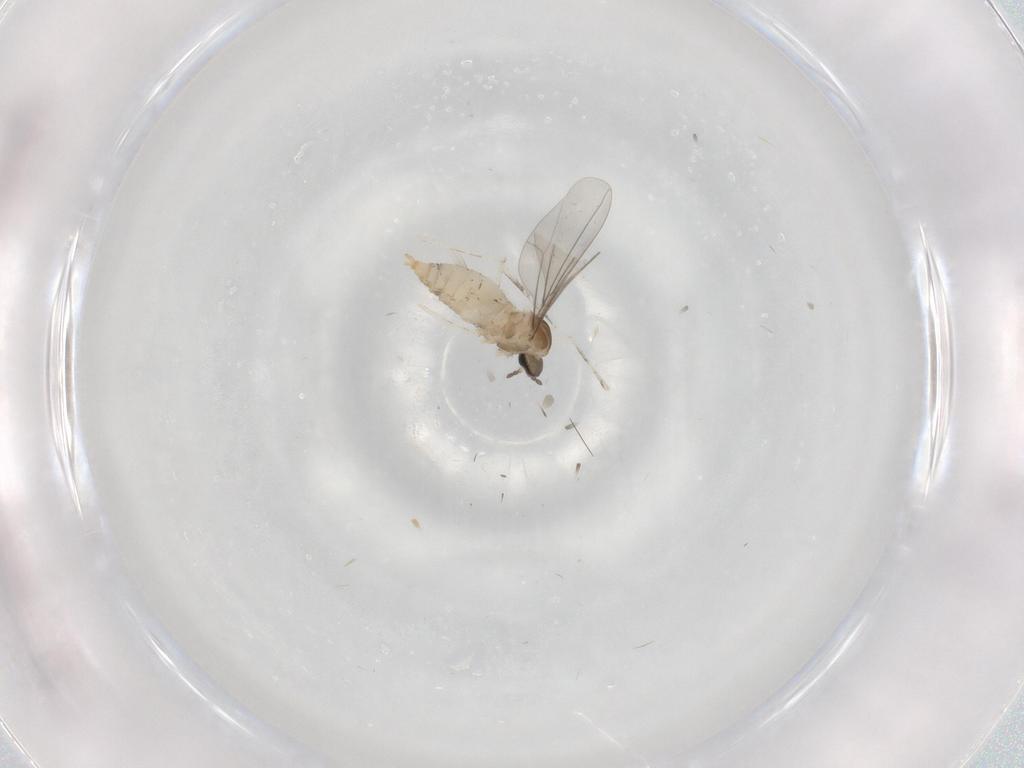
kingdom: Animalia
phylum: Arthropoda
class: Insecta
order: Diptera
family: Cecidomyiidae
